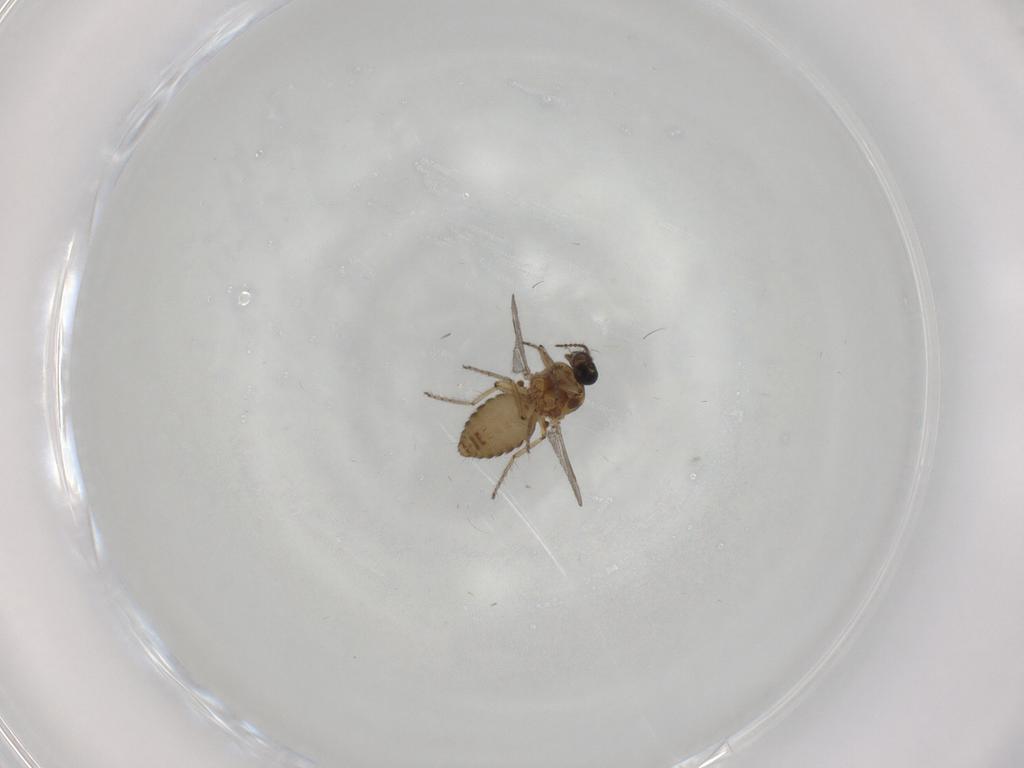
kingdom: Animalia
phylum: Arthropoda
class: Insecta
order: Diptera
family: Ceratopogonidae
